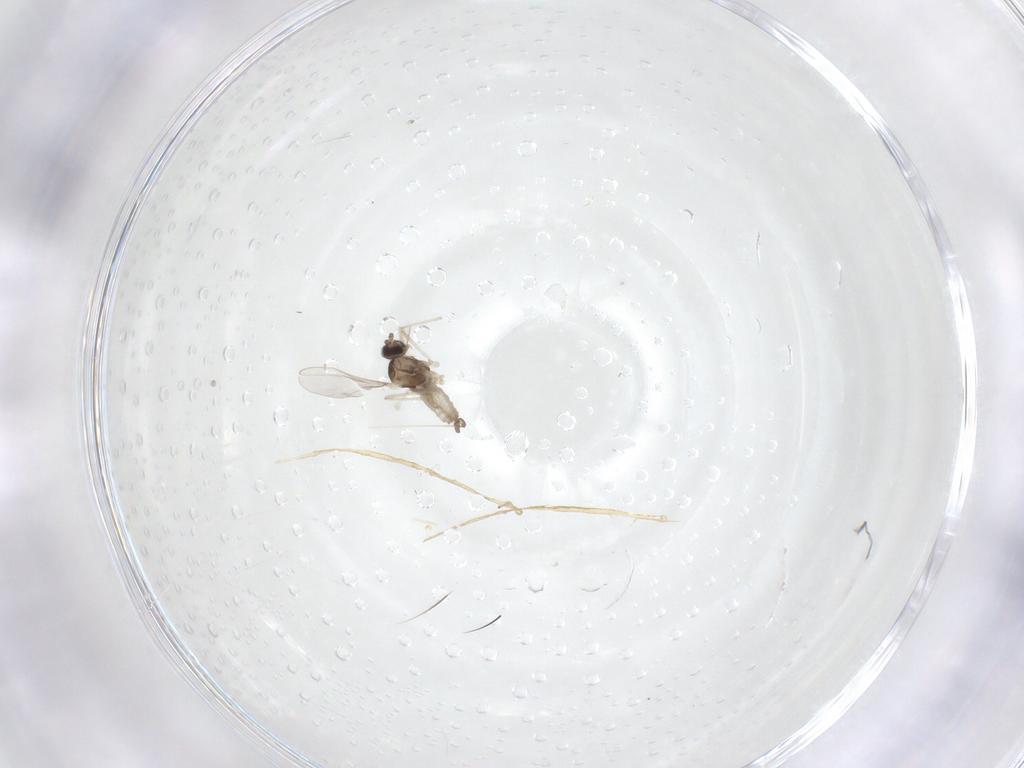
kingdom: Animalia
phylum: Arthropoda
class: Insecta
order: Diptera
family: Cecidomyiidae
